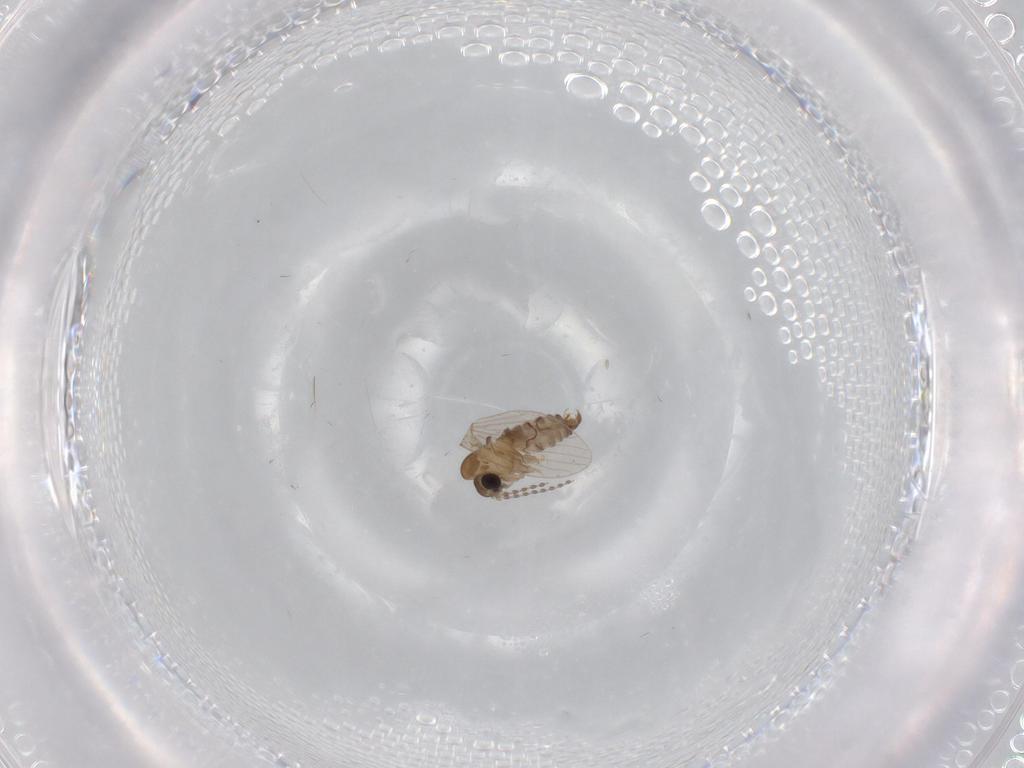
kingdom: Animalia
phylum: Arthropoda
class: Insecta
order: Diptera
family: Psychodidae
